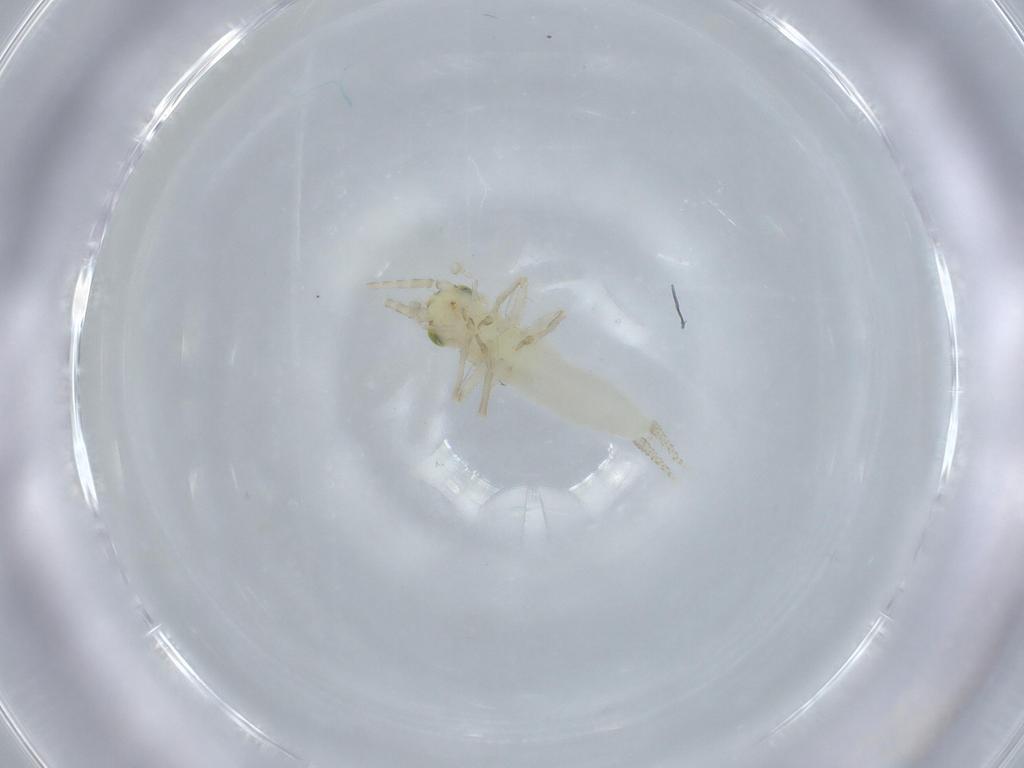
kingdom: Animalia
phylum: Arthropoda
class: Insecta
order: Orthoptera
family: Trigonidiidae
